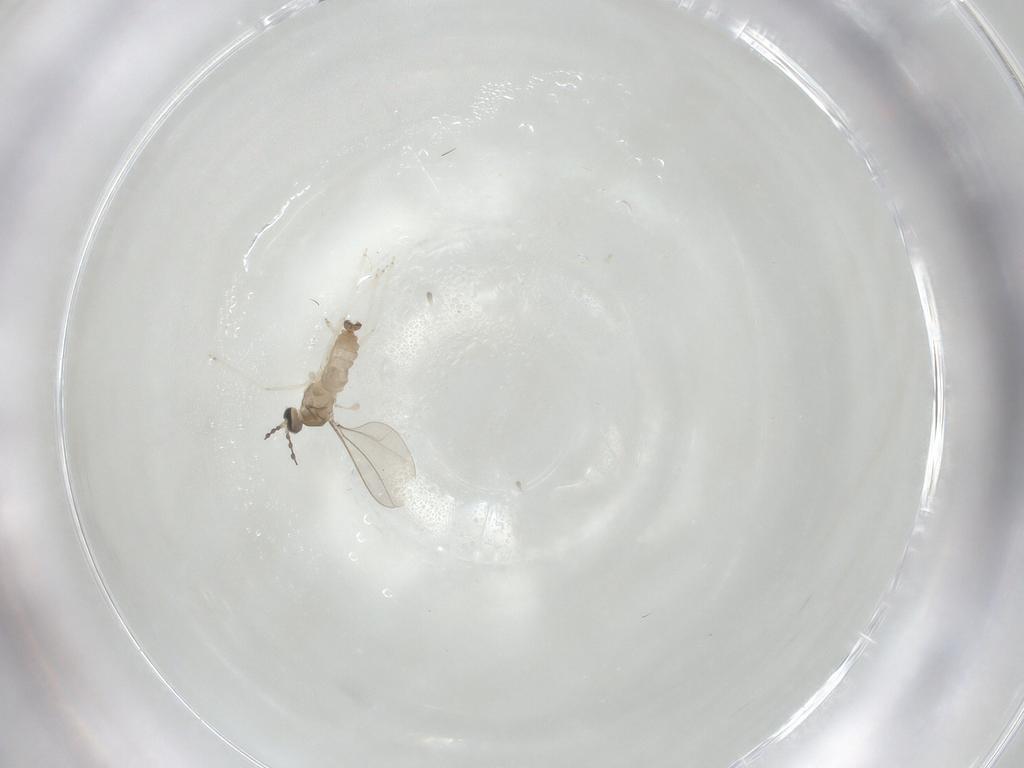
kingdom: Animalia
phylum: Arthropoda
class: Insecta
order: Diptera
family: Cecidomyiidae
